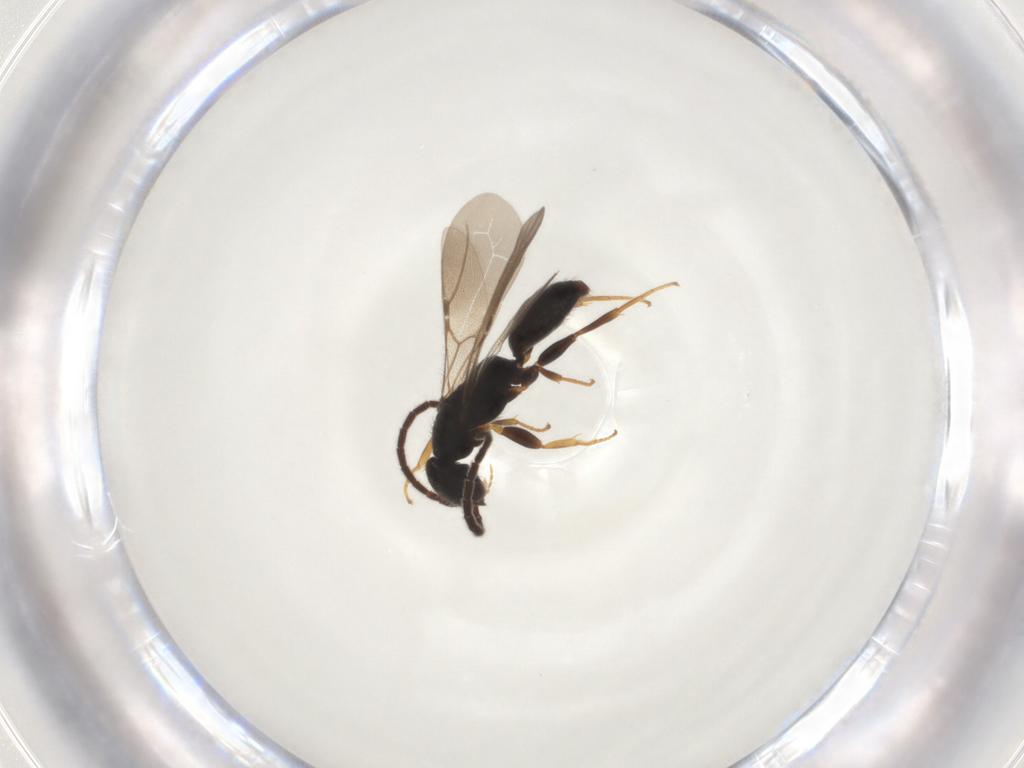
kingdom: Animalia
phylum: Arthropoda
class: Insecta
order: Hymenoptera
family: Bethylidae
